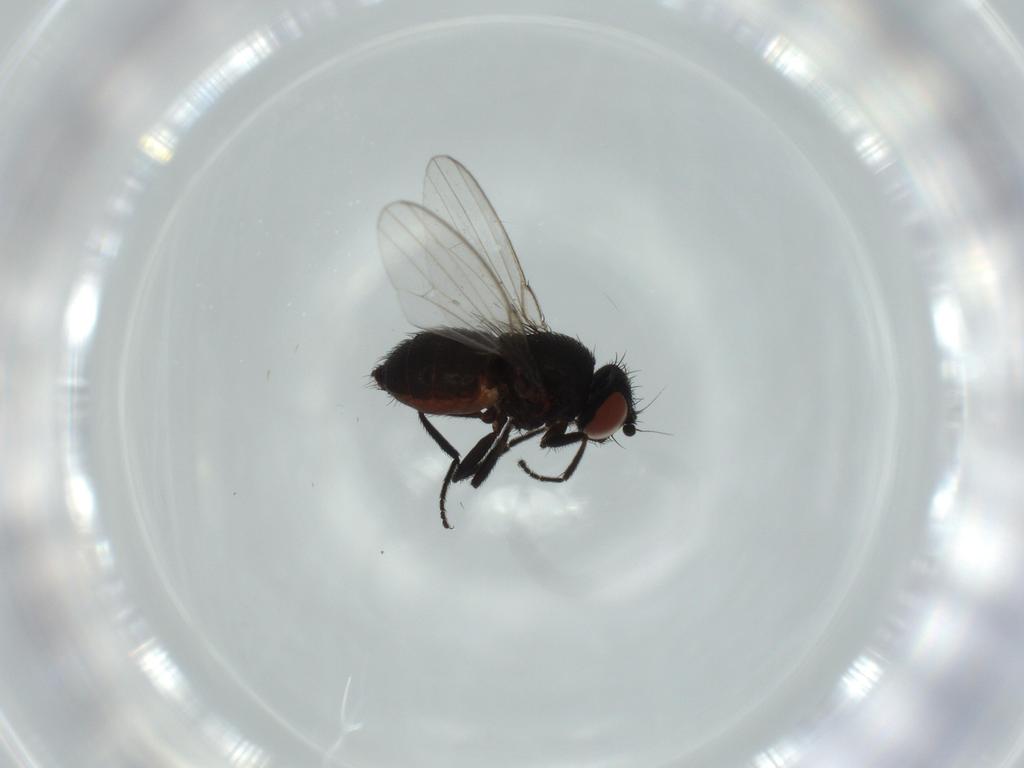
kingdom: Animalia
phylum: Arthropoda
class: Insecta
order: Diptera
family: Milichiidae
